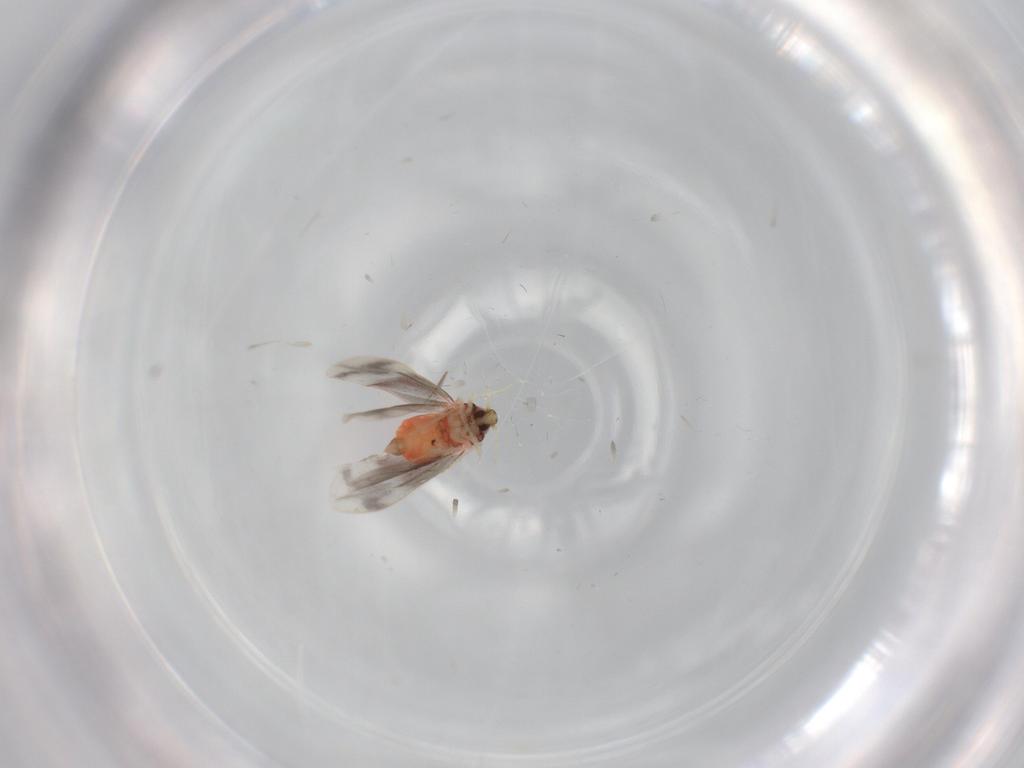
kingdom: Animalia
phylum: Arthropoda
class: Insecta
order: Hemiptera
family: Aleyrodidae
